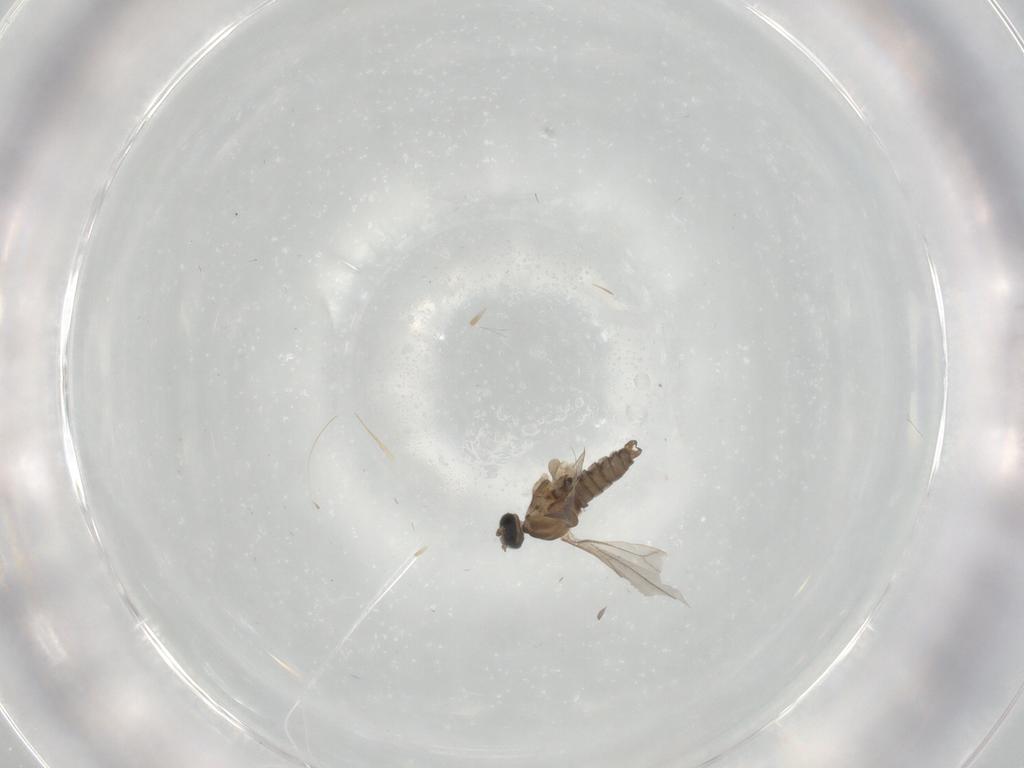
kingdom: Animalia
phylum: Arthropoda
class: Insecta
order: Diptera
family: Cecidomyiidae
